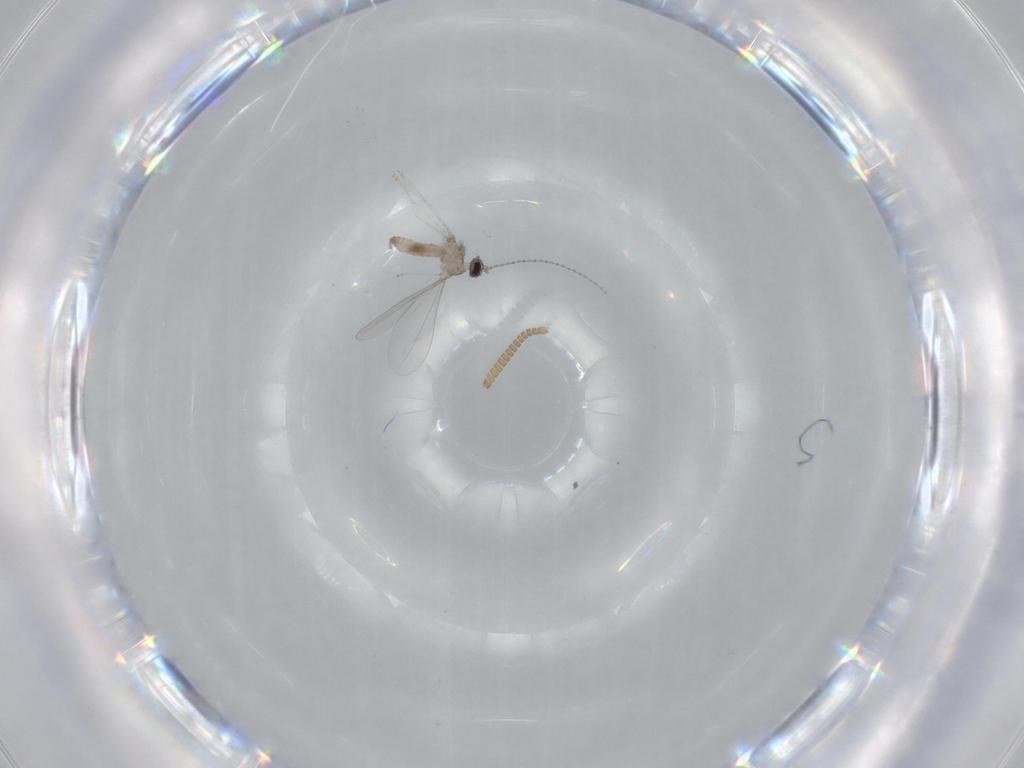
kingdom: Animalia
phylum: Arthropoda
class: Insecta
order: Diptera
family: Cecidomyiidae
